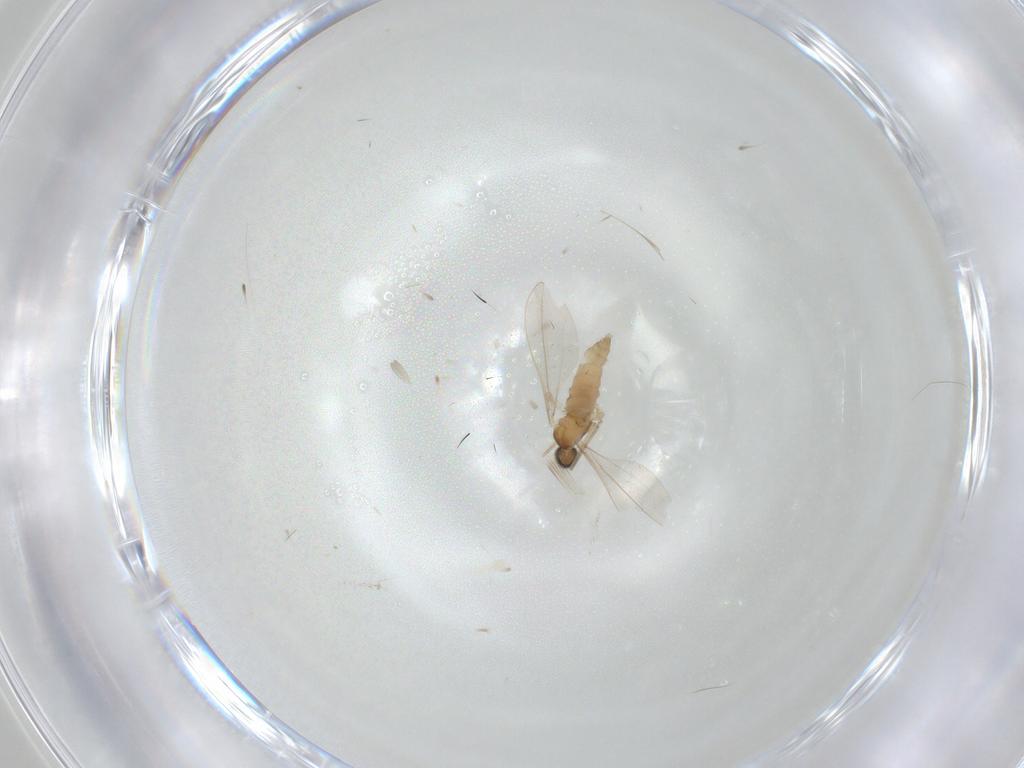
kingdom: Animalia
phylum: Arthropoda
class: Insecta
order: Diptera
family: Cecidomyiidae
